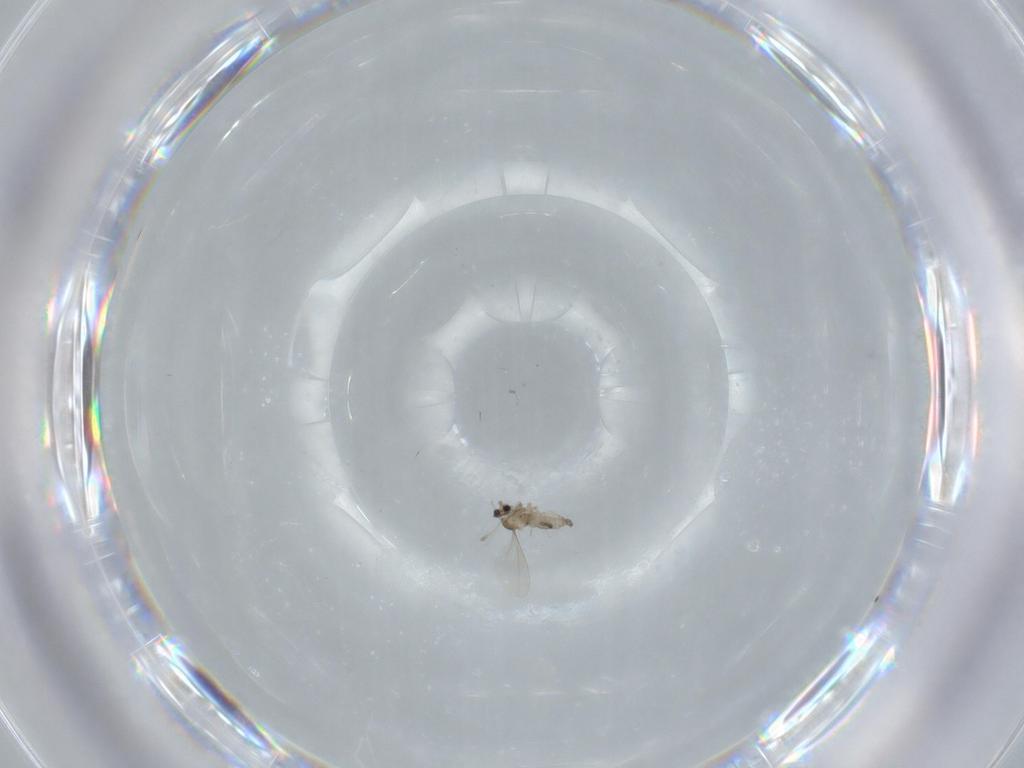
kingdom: Animalia
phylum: Arthropoda
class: Insecta
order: Diptera
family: Cecidomyiidae
